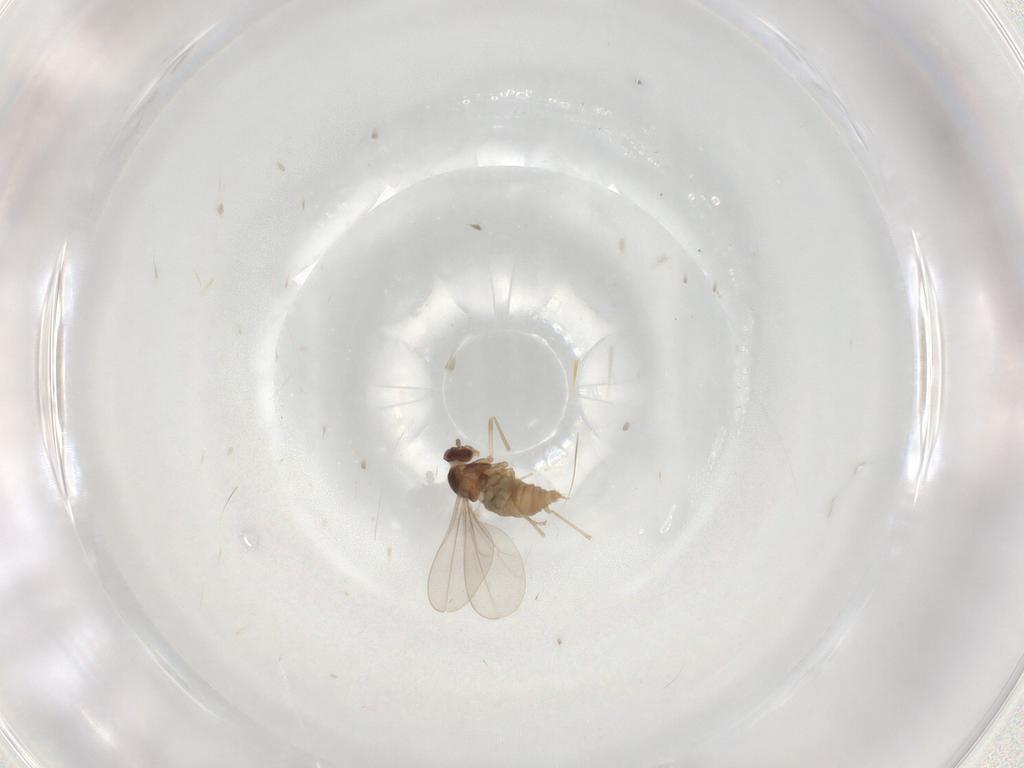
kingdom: Animalia
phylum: Arthropoda
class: Insecta
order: Diptera
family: Cecidomyiidae
